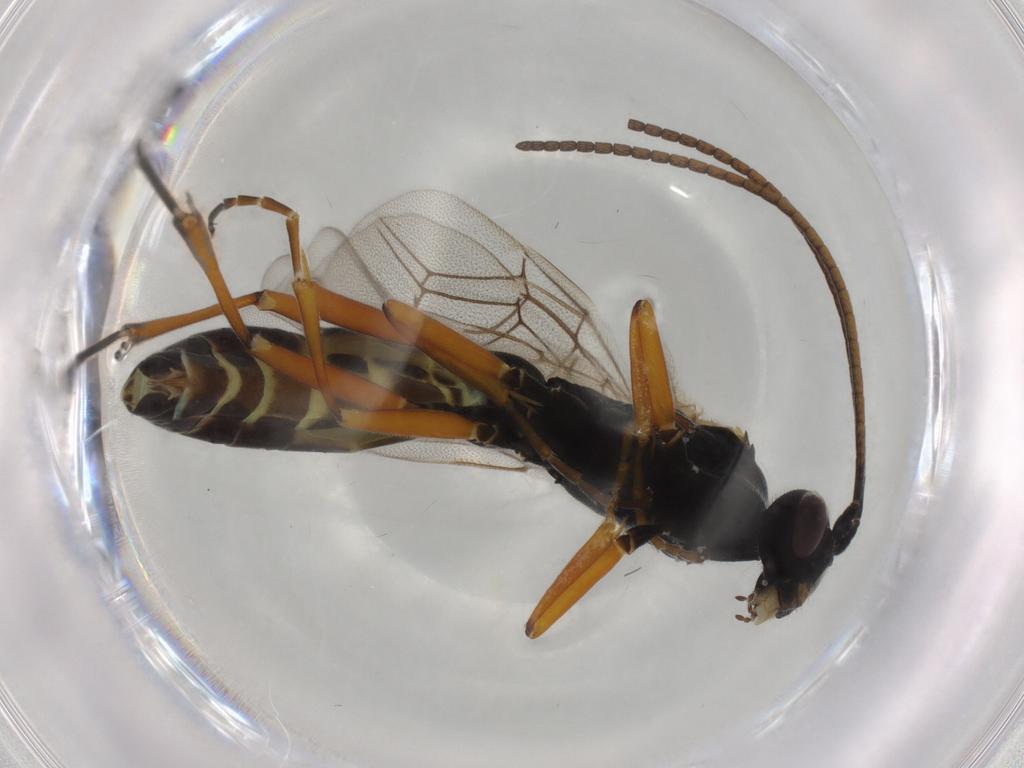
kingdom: Animalia
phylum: Arthropoda
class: Insecta
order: Hymenoptera
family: Ichneumonidae
